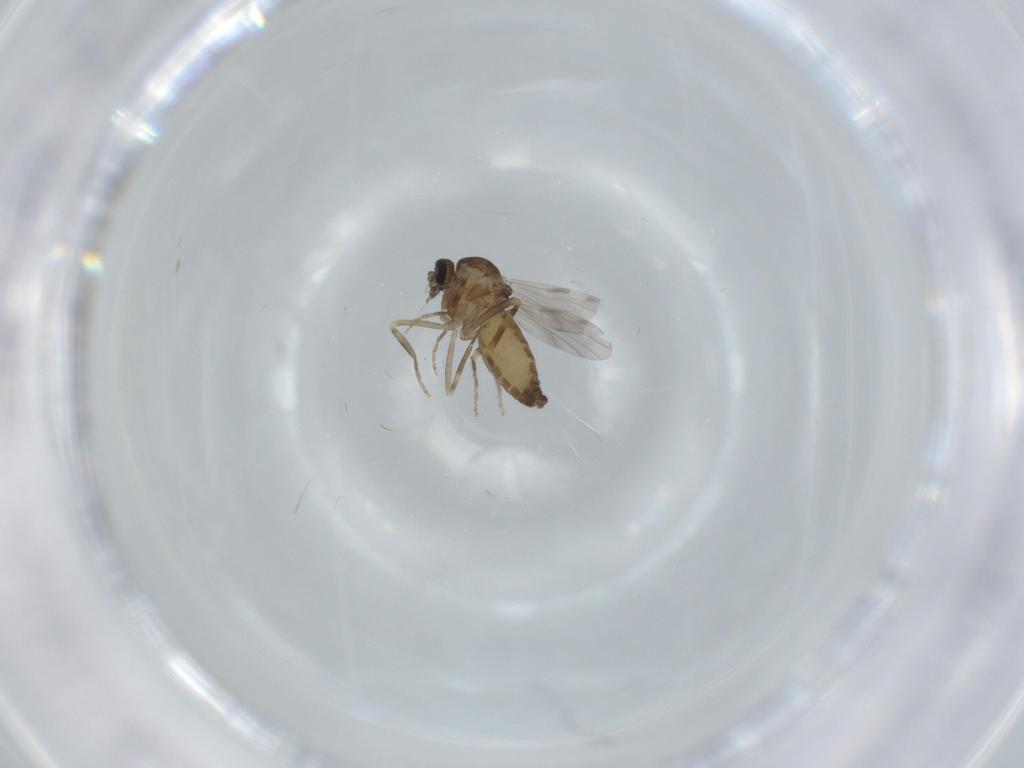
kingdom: Animalia
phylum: Arthropoda
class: Insecta
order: Diptera
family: Ceratopogonidae
